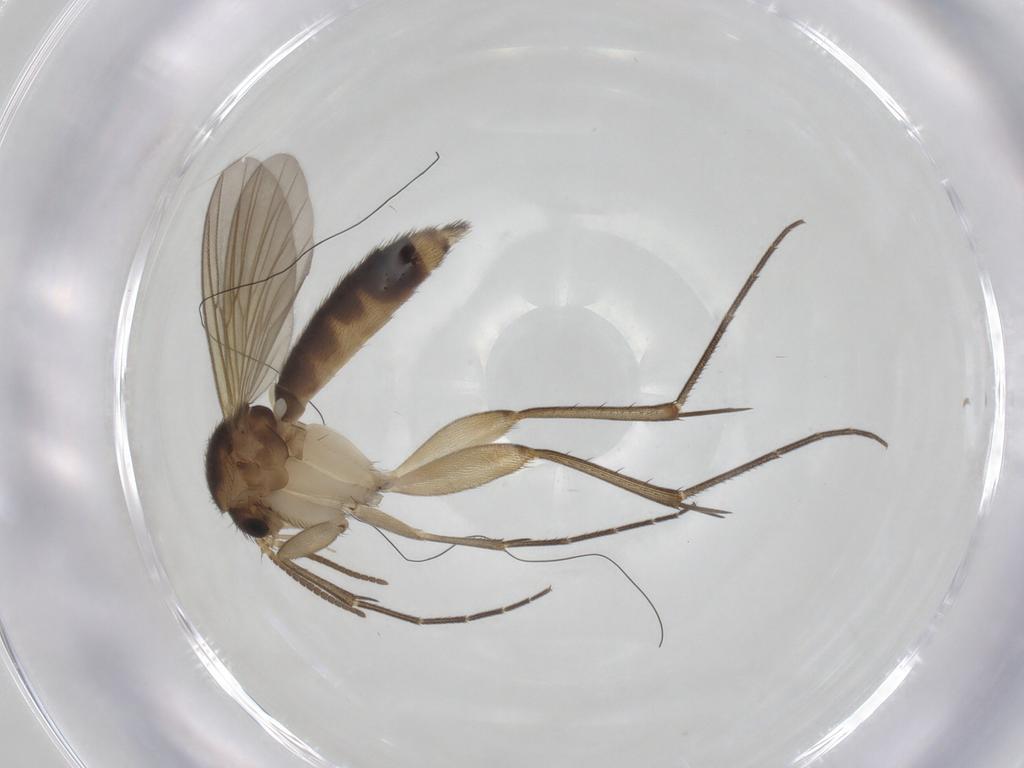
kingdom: Animalia
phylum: Arthropoda
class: Insecta
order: Diptera
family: Mycetophilidae
